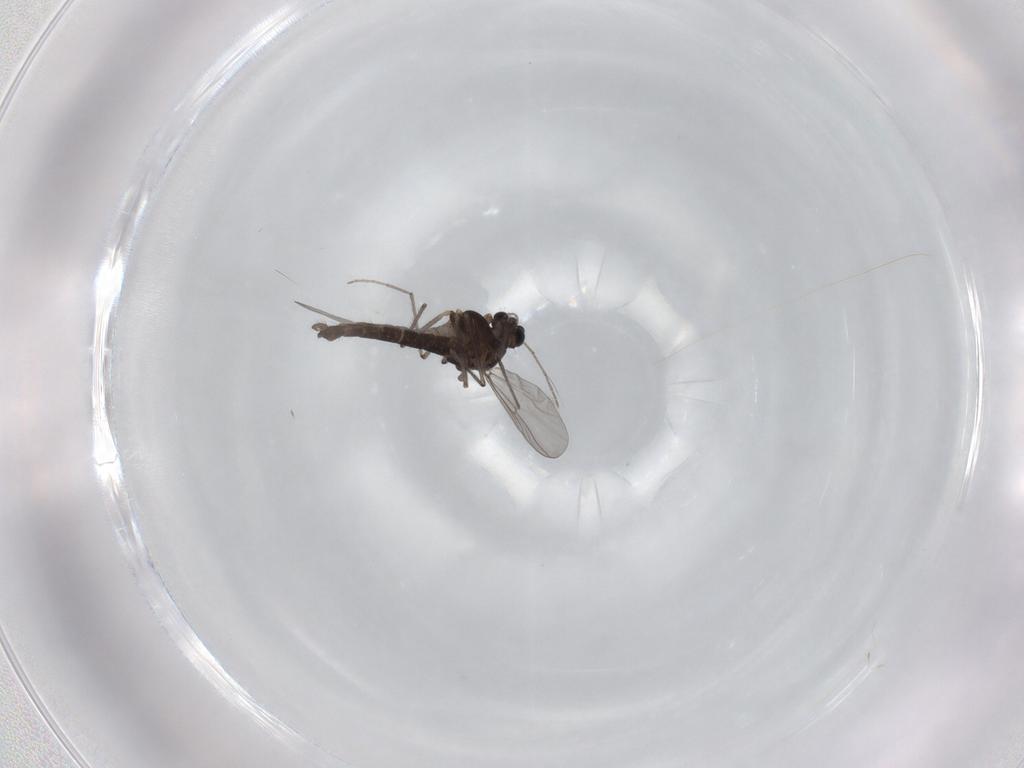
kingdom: Animalia
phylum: Arthropoda
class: Insecta
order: Diptera
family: Chironomidae
